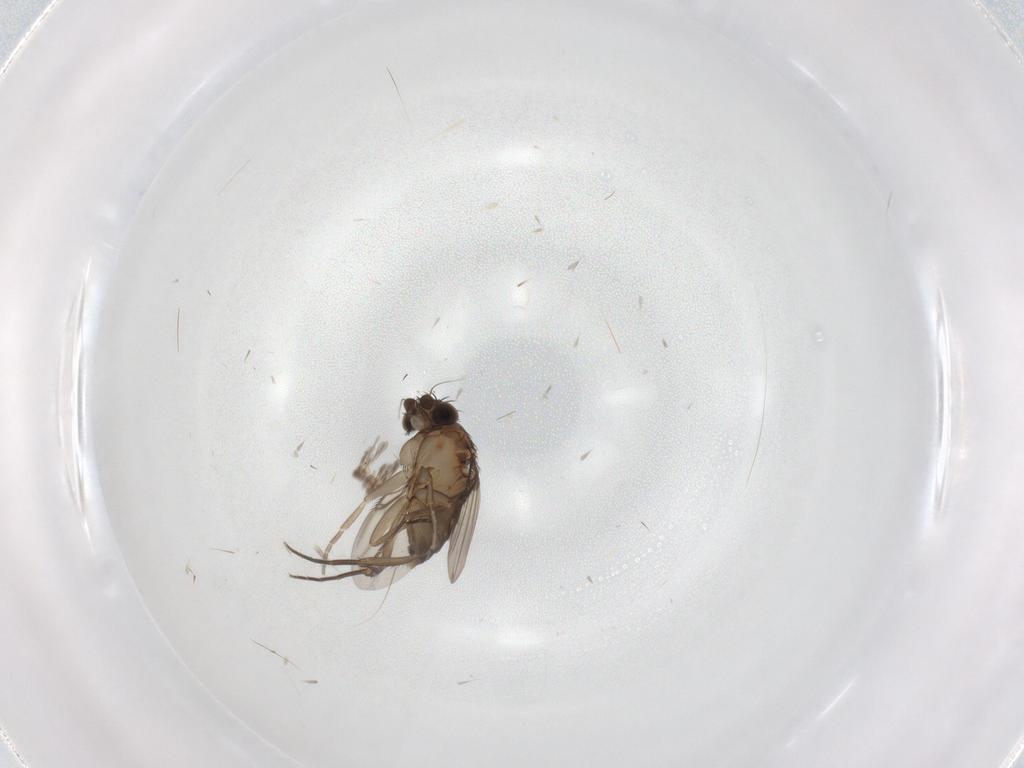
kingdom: Animalia
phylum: Arthropoda
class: Insecta
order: Diptera
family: Phoridae
